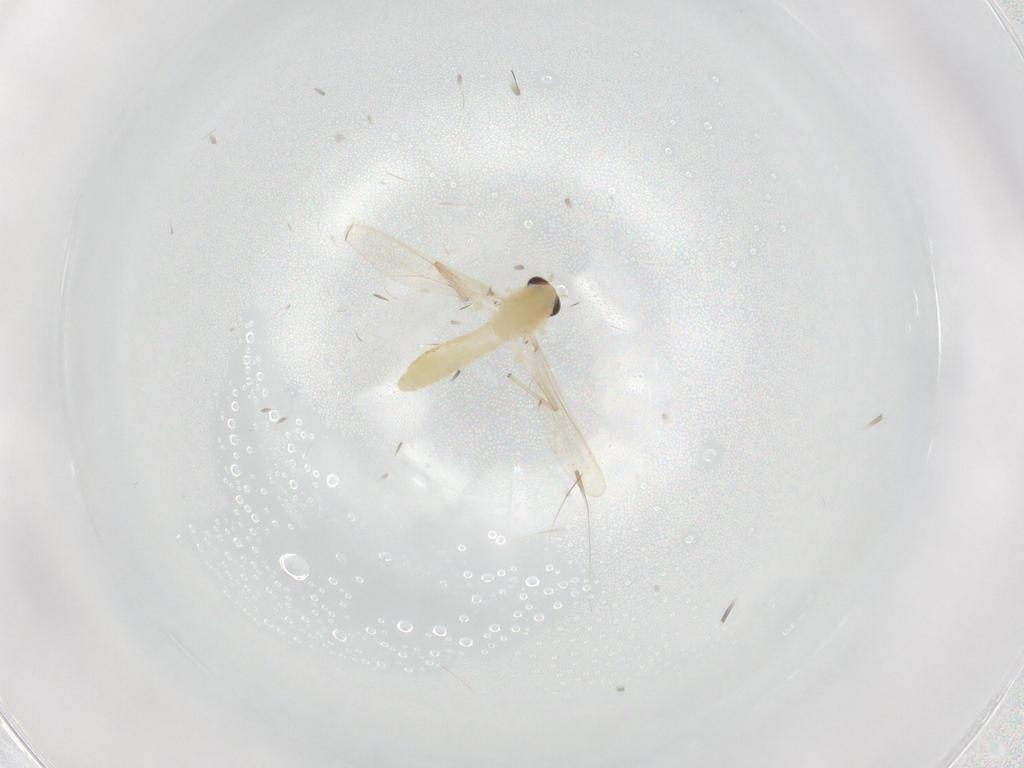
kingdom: Animalia
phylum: Arthropoda
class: Insecta
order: Diptera
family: Chironomidae
